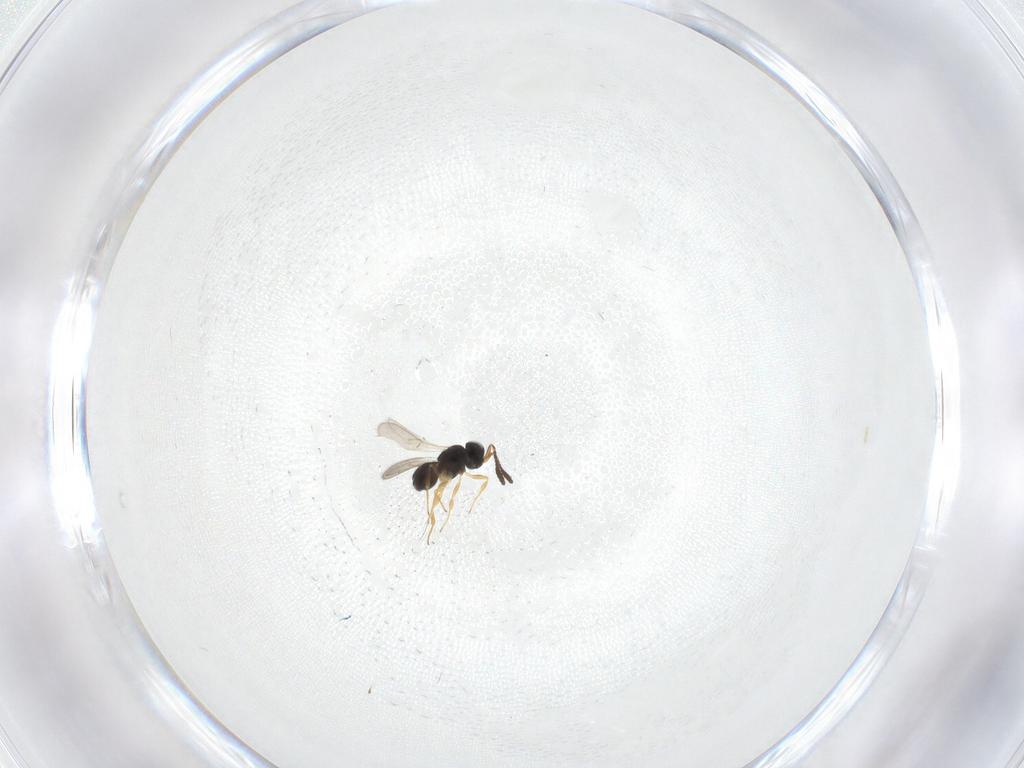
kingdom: Animalia
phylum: Arthropoda
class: Insecta
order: Hymenoptera
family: Scelionidae
